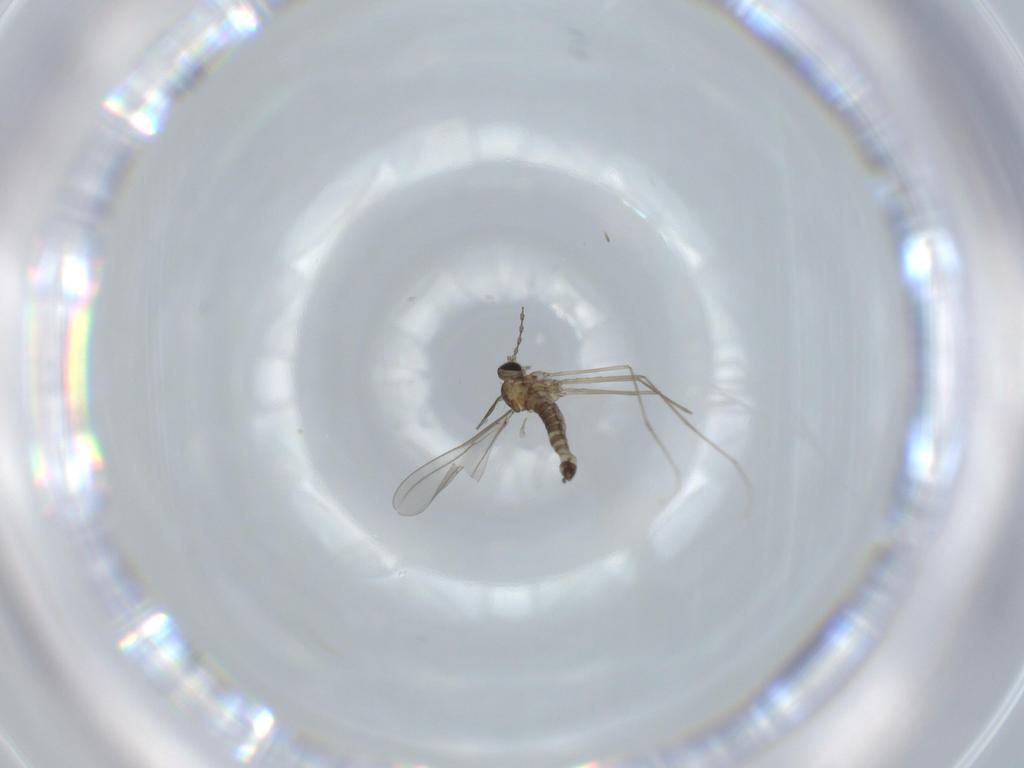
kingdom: Animalia
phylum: Arthropoda
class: Insecta
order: Diptera
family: Cecidomyiidae
